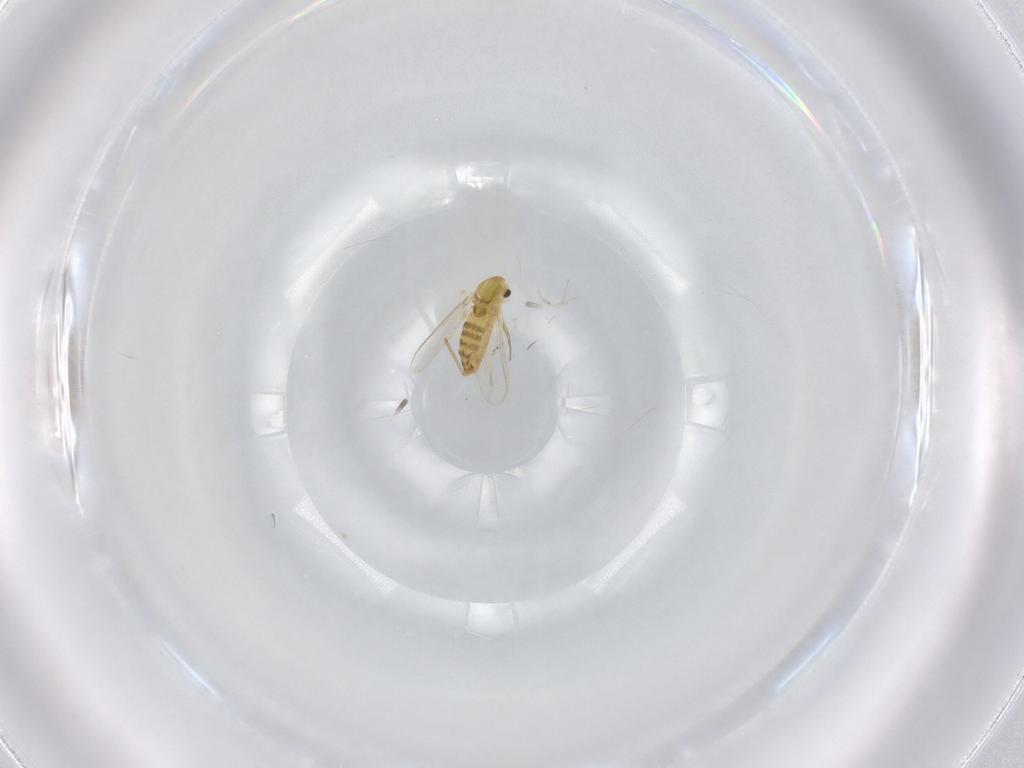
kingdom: Animalia
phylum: Arthropoda
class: Insecta
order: Diptera
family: Chironomidae
